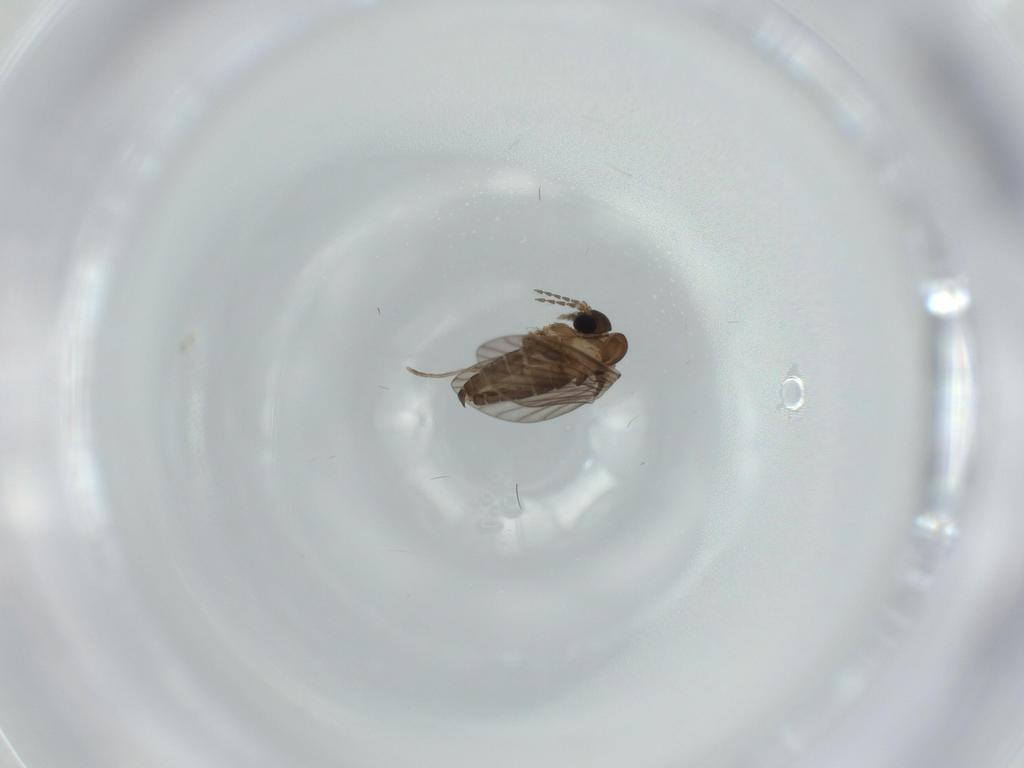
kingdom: Animalia
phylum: Arthropoda
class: Insecta
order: Diptera
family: Psychodidae
